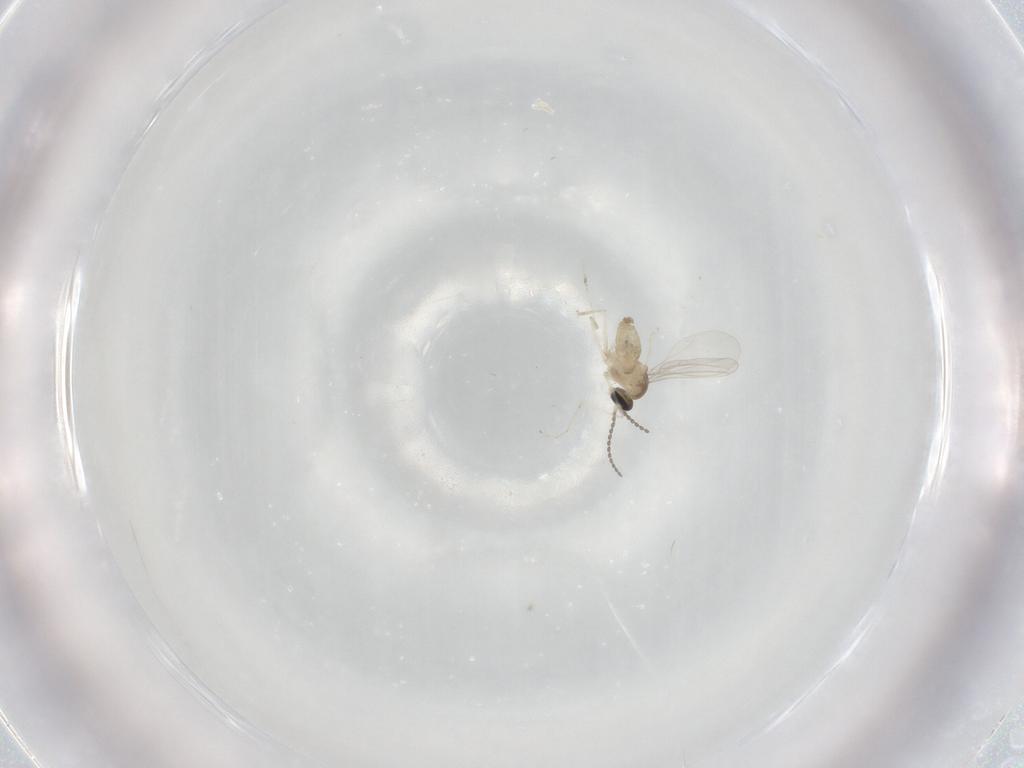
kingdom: Animalia
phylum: Arthropoda
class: Insecta
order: Diptera
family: Cecidomyiidae
